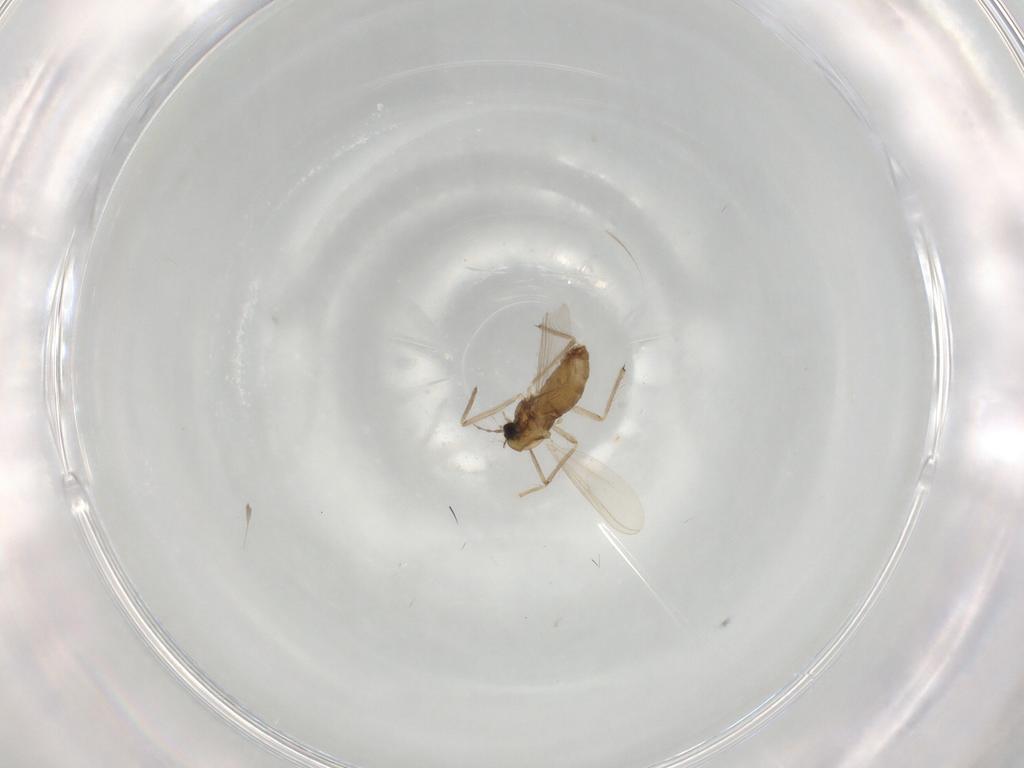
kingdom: Animalia
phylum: Arthropoda
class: Insecta
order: Diptera
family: Chironomidae
